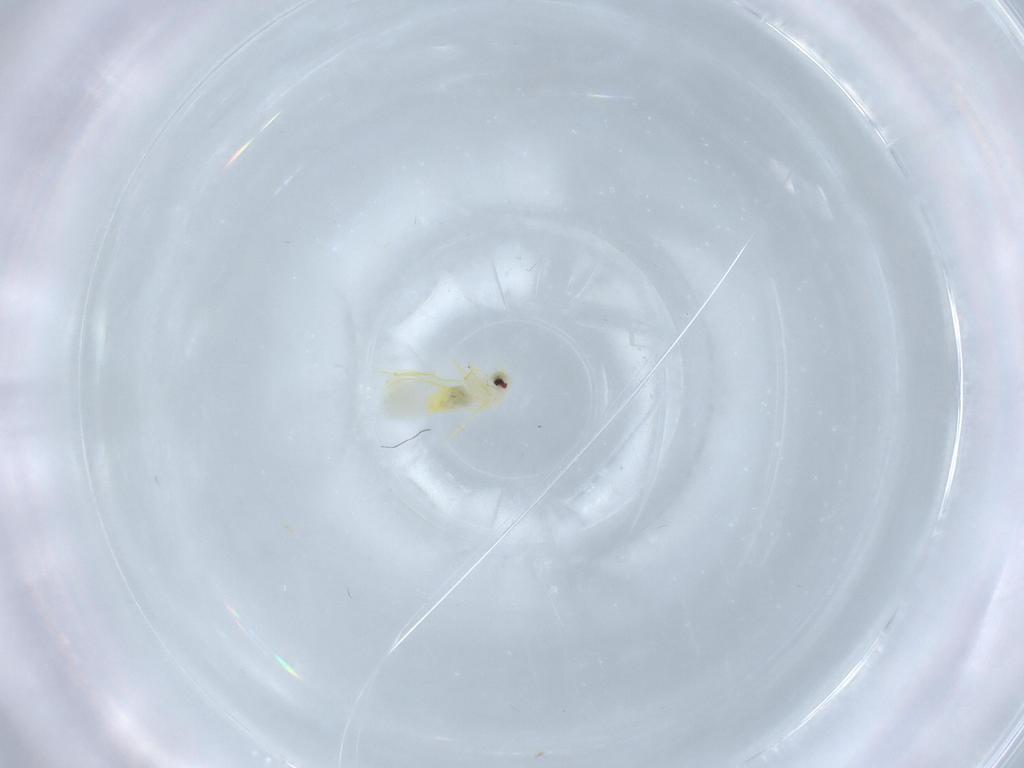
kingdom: Animalia
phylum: Arthropoda
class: Insecta
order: Hemiptera
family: Aleyrodidae
